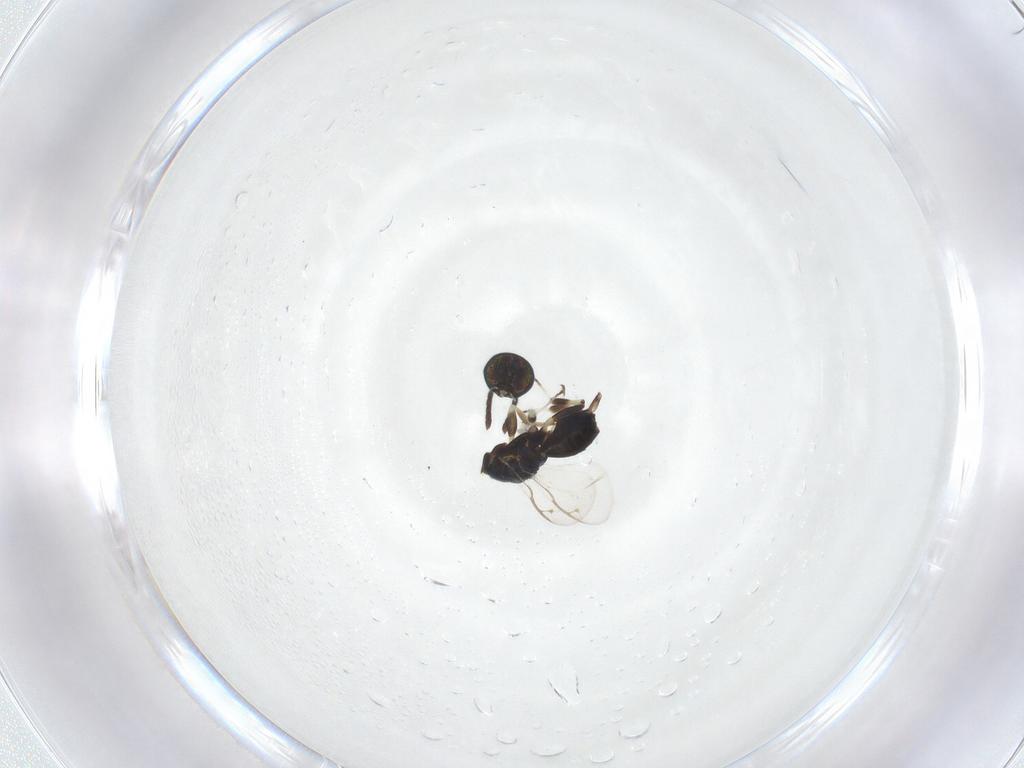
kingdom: Animalia
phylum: Arthropoda
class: Insecta
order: Hymenoptera
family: Eupelmidae
